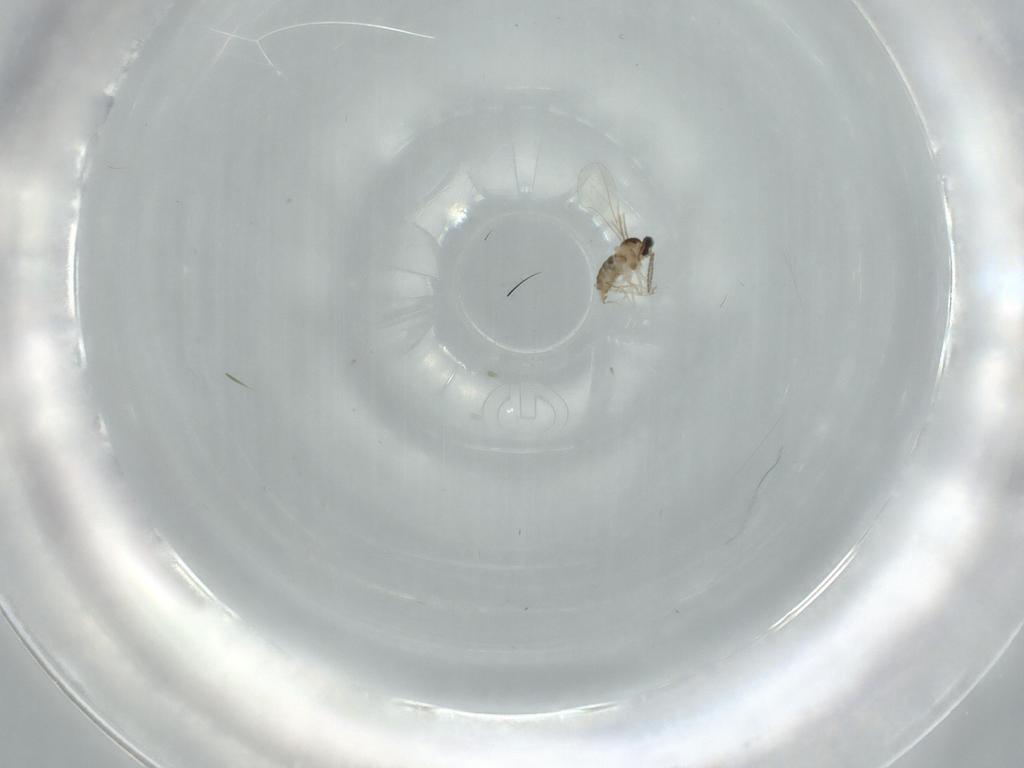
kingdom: Animalia
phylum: Arthropoda
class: Insecta
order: Diptera
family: Cecidomyiidae
